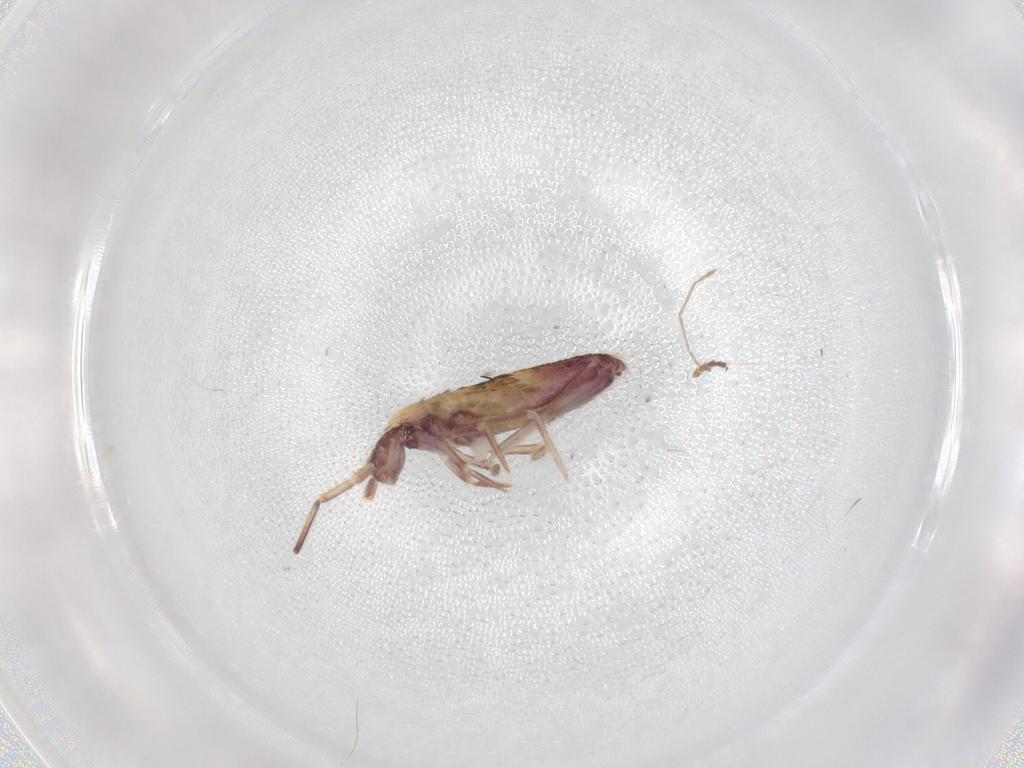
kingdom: Animalia
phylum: Arthropoda
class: Collembola
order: Entomobryomorpha
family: Entomobryidae
